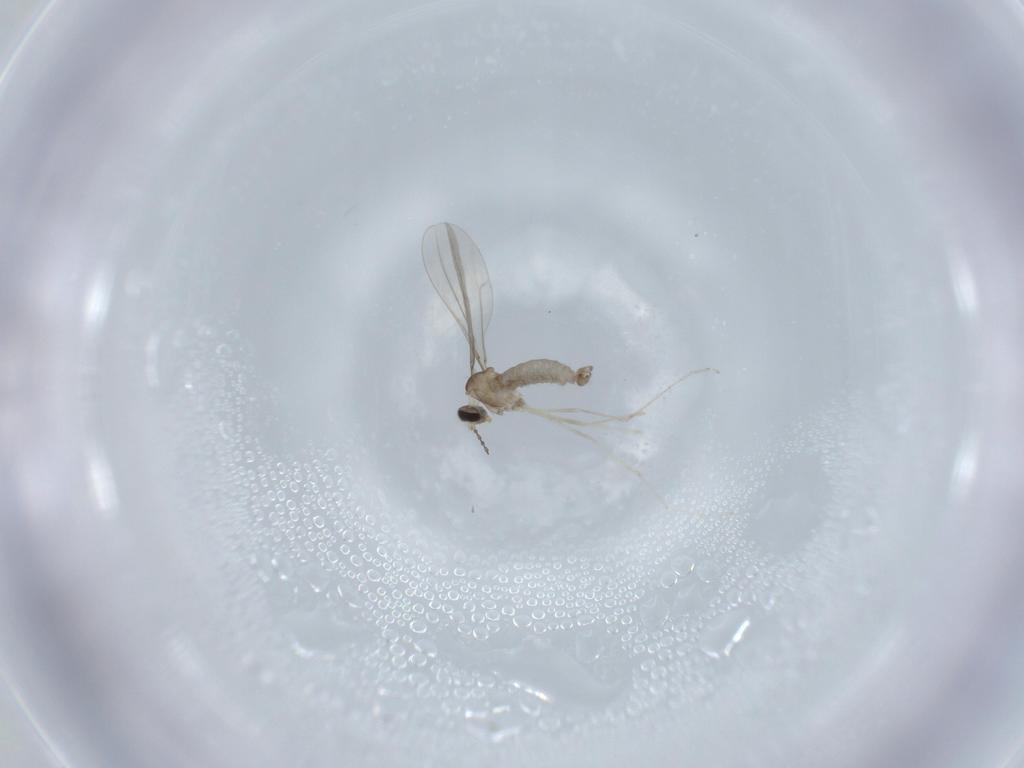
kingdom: Animalia
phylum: Arthropoda
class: Insecta
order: Diptera
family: Cecidomyiidae
